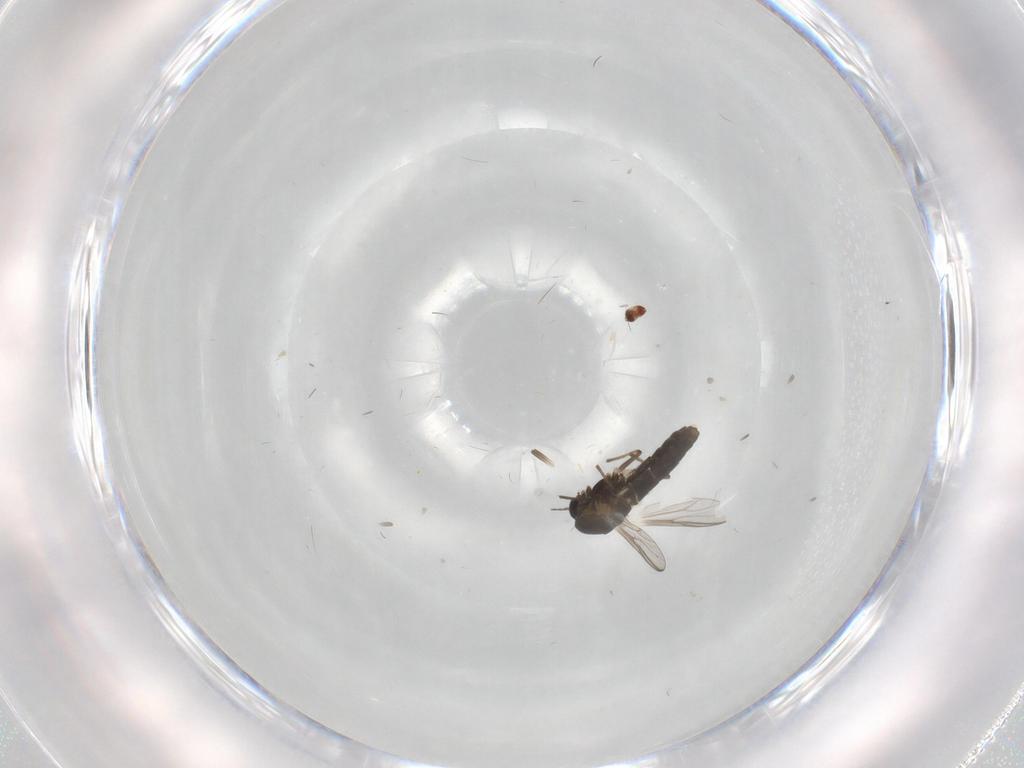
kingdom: Animalia
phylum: Arthropoda
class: Insecta
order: Diptera
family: Chironomidae
